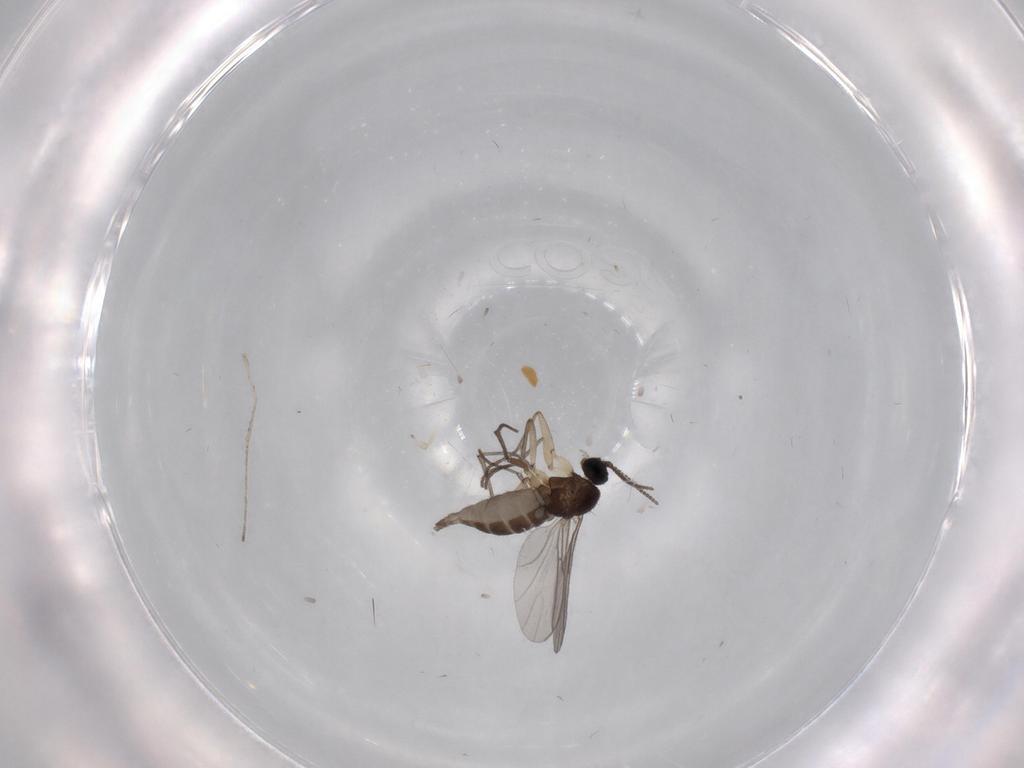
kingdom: Animalia
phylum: Arthropoda
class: Insecta
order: Diptera
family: Sciaridae
